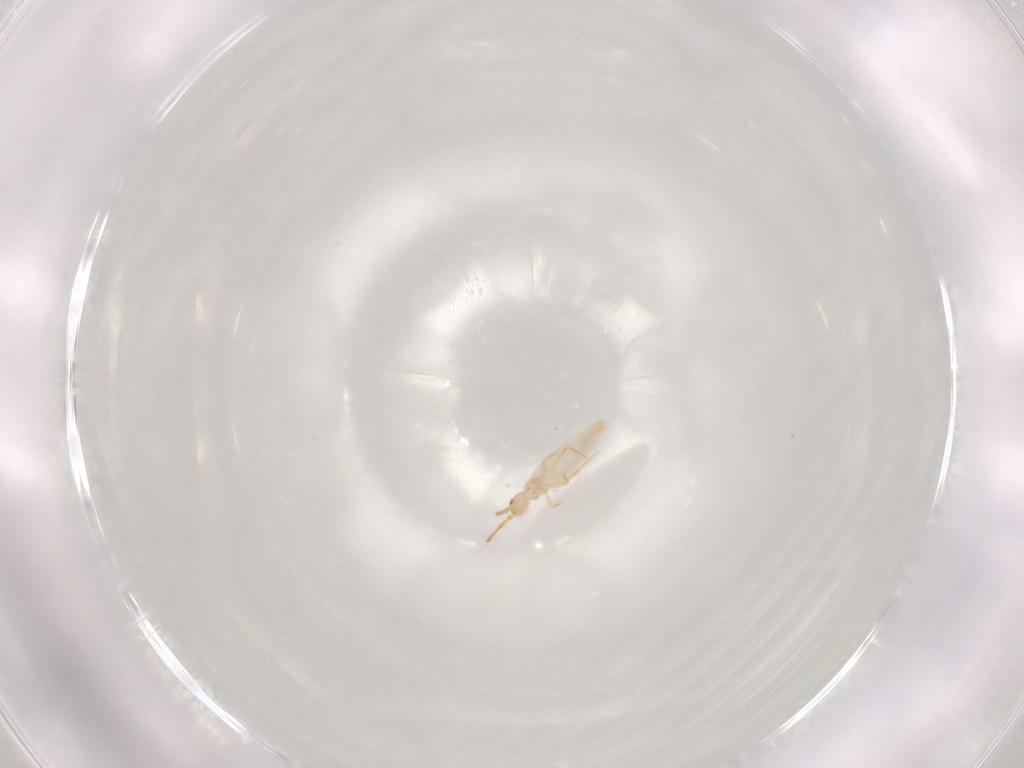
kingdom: Animalia
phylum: Arthropoda
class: Collembola
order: Entomobryomorpha
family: Entomobryidae
